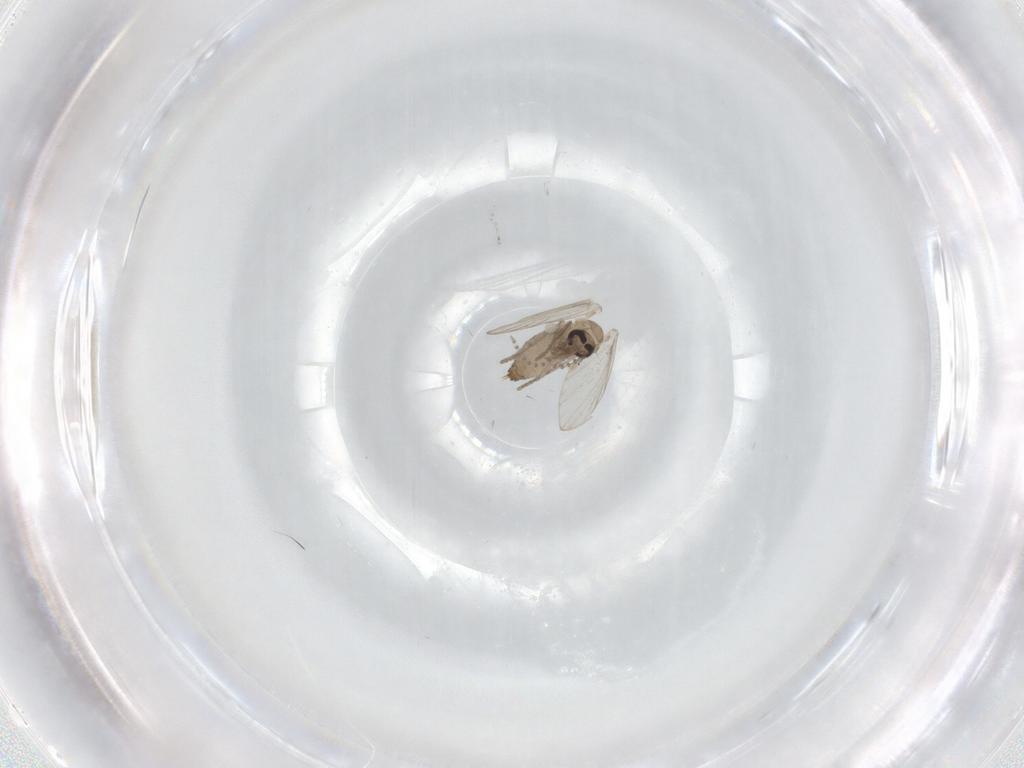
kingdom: Animalia
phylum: Arthropoda
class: Insecta
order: Diptera
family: Psychodidae
